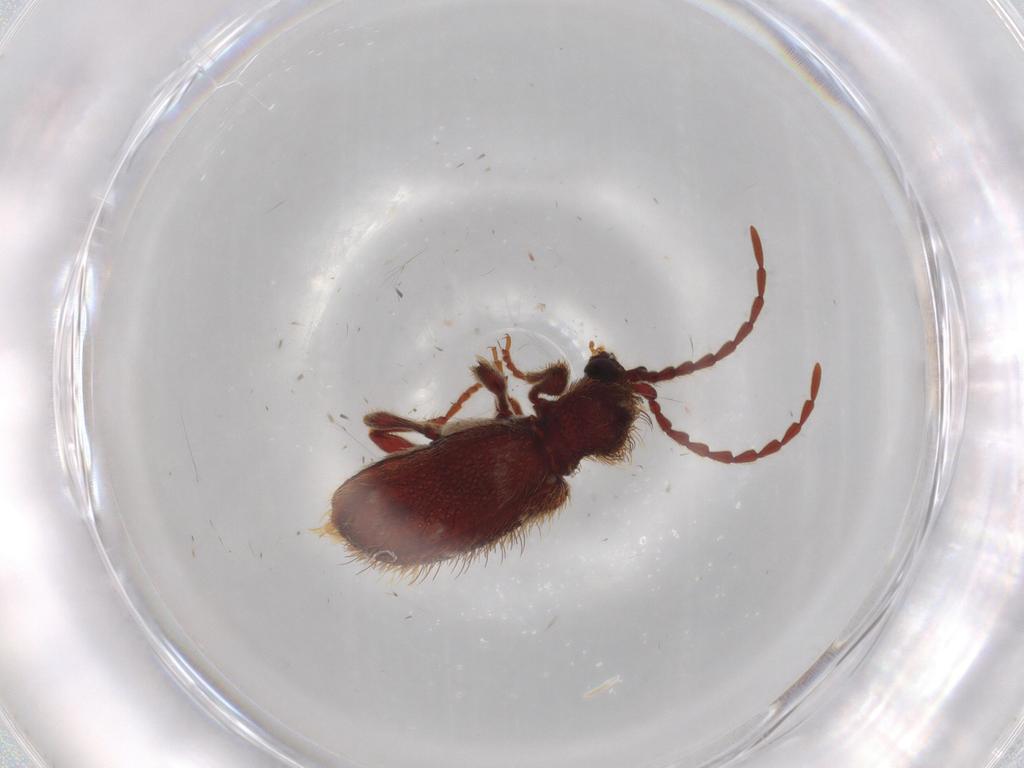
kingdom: Animalia
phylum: Arthropoda
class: Insecta
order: Coleoptera
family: Ptinidae
